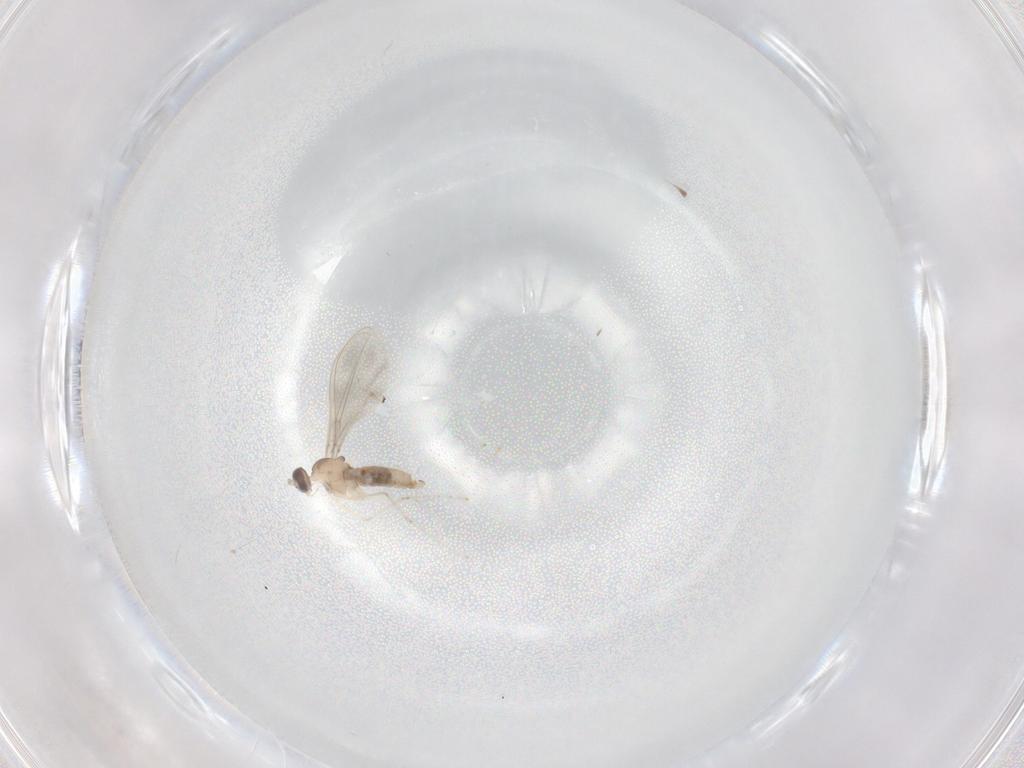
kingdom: Animalia
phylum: Arthropoda
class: Insecta
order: Diptera
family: Cecidomyiidae
